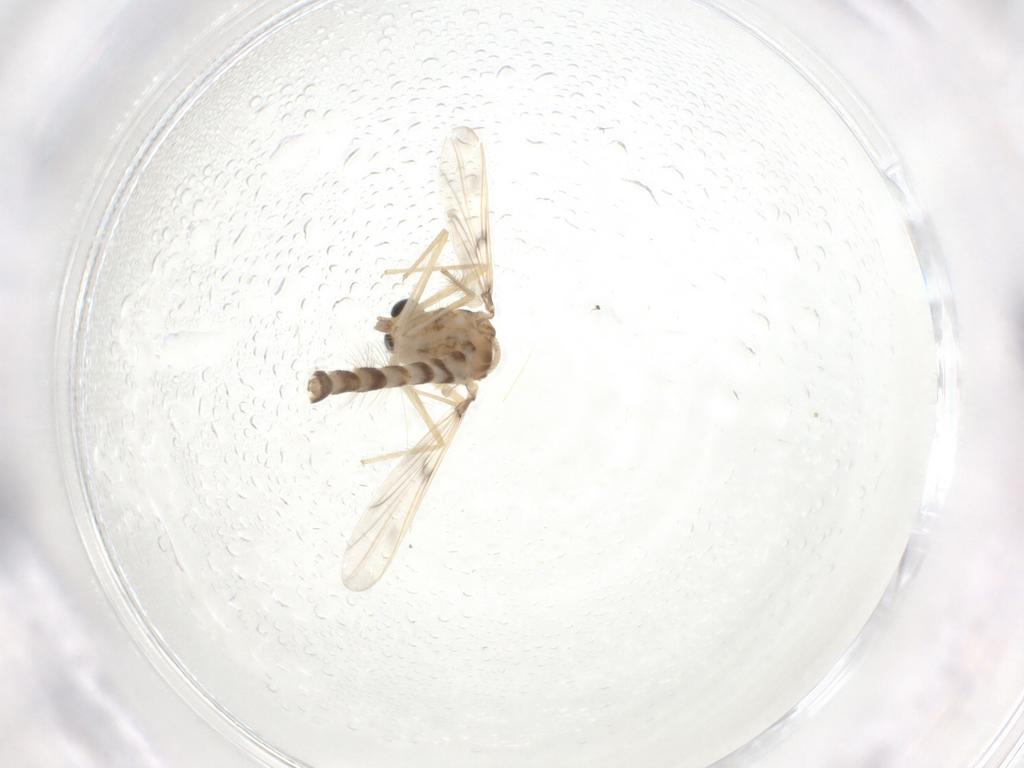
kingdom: Animalia
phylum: Arthropoda
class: Insecta
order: Diptera
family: Chironomidae
